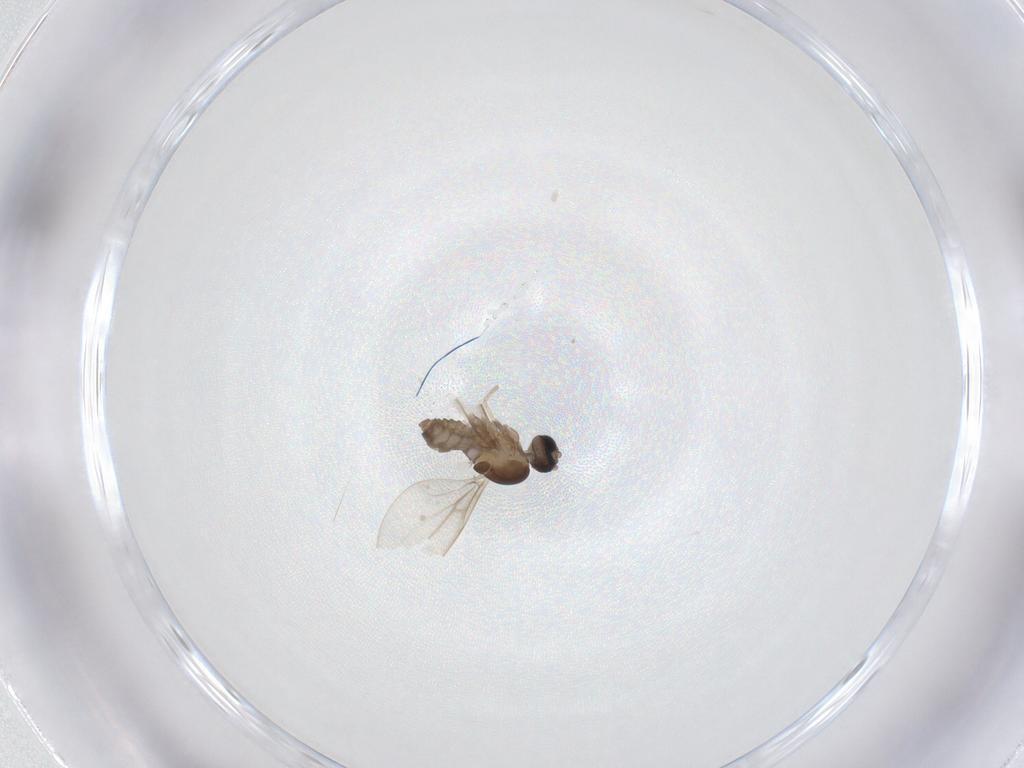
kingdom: Animalia
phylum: Arthropoda
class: Insecta
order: Diptera
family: Cecidomyiidae
